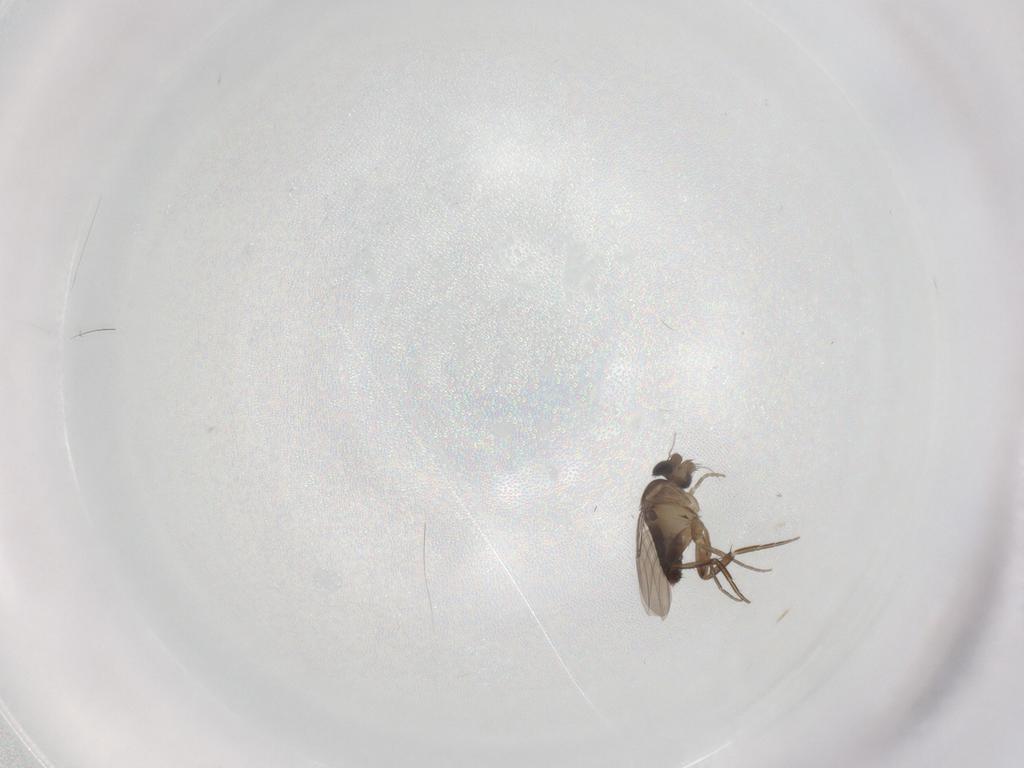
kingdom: Animalia
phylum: Arthropoda
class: Insecta
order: Diptera
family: Phoridae
